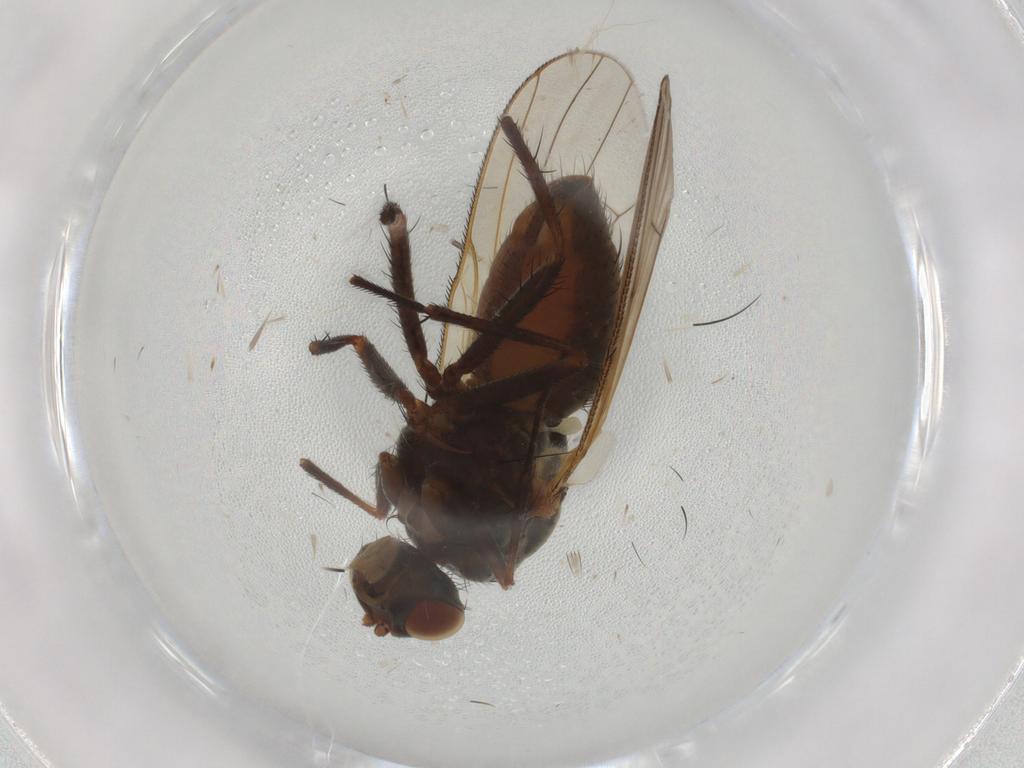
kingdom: Animalia
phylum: Arthropoda
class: Insecta
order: Diptera
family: Anthomyiidae
